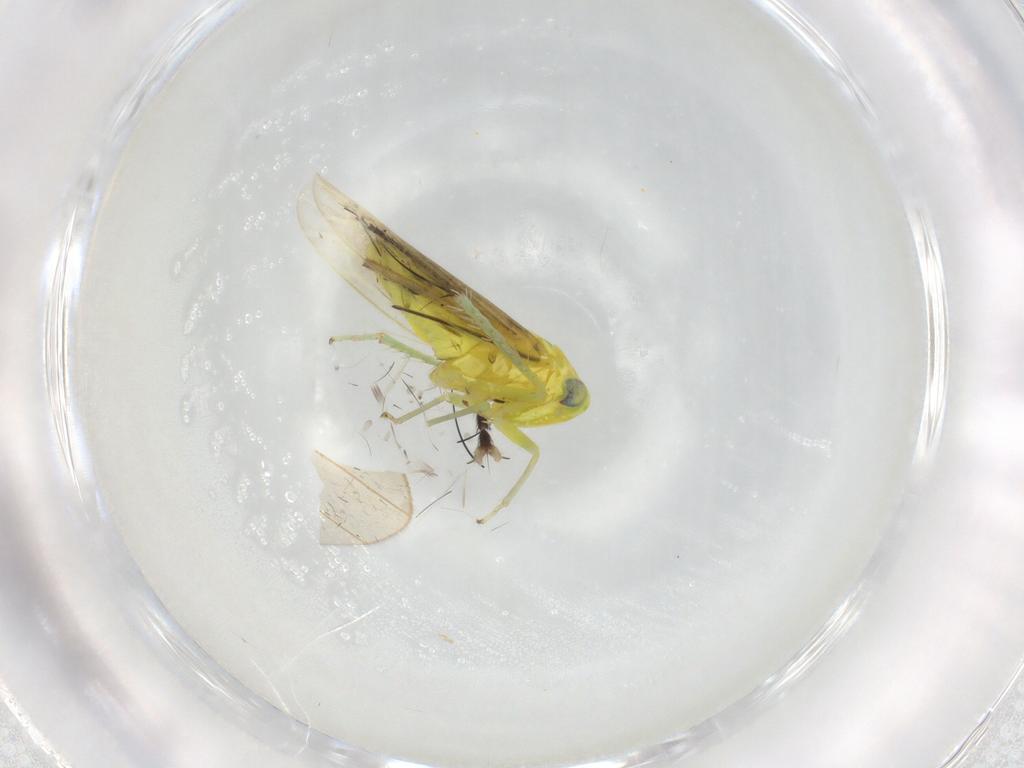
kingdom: Animalia
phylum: Arthropoda
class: Insecta
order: Hemiptera
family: Cicadellidae
